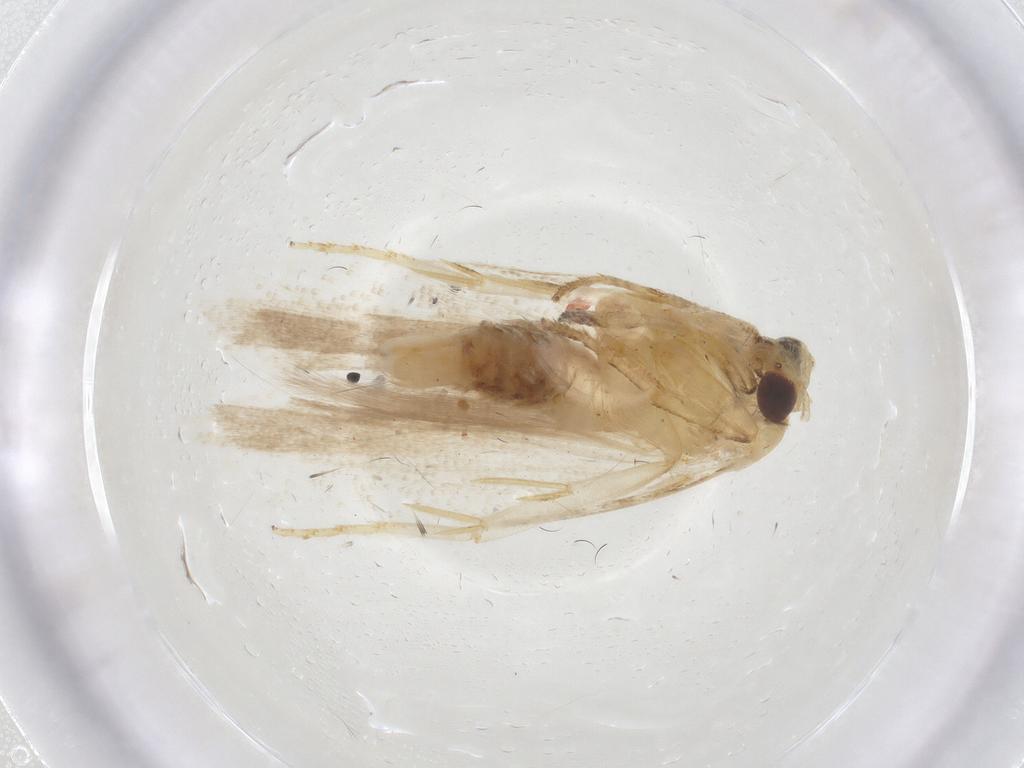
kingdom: Animalia
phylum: Arthropoda
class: Insecta
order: Lepidoptera
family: Gelechiidae
